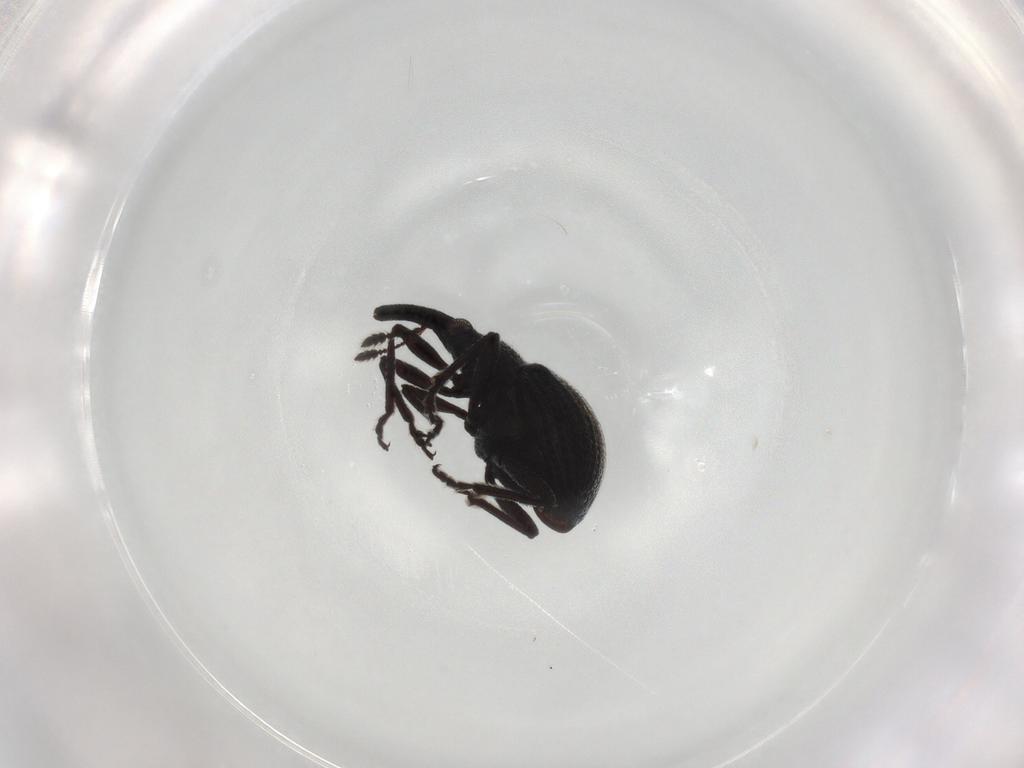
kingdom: Animalia
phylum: Arthropoda
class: Insecta
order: Coleoptera
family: Brentidae
